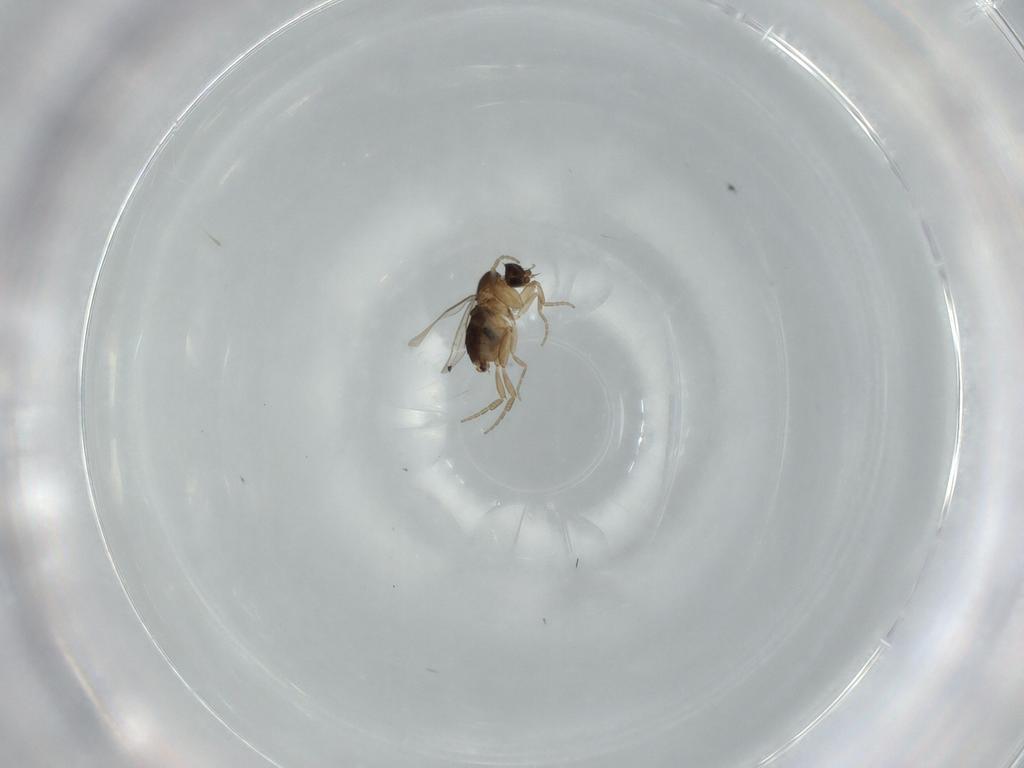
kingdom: Animalia
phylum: Arthropoda
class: Insecta
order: Diptera
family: Phoridae
